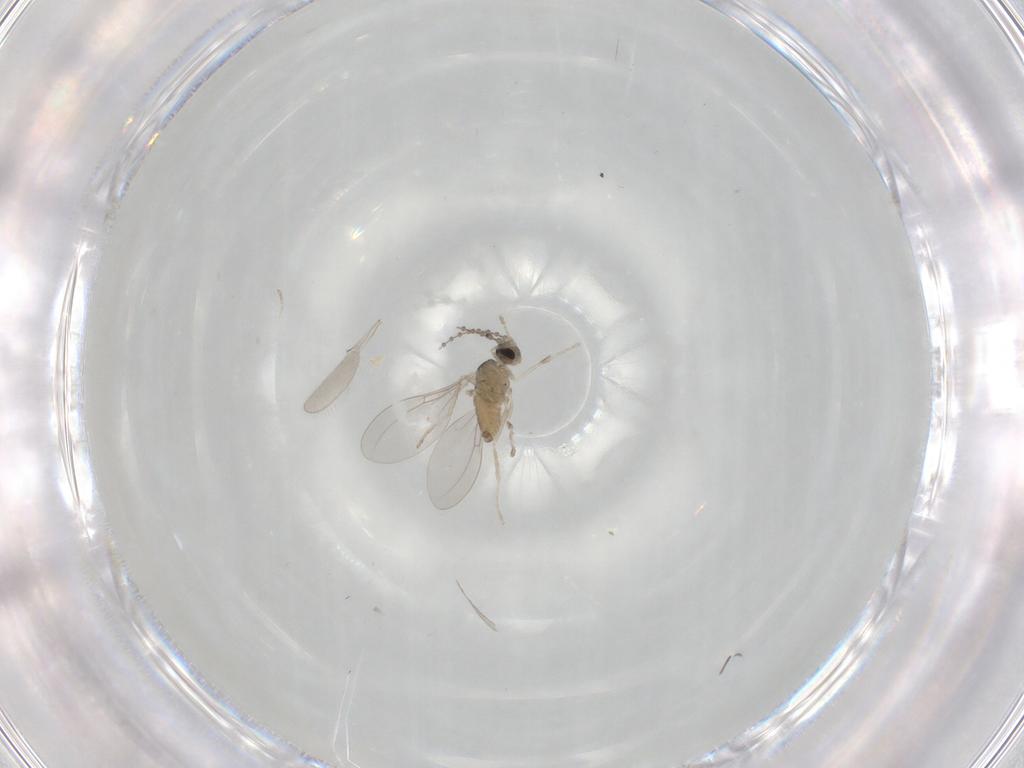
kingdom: Animalia
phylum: Arthropoda
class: Insecta
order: Diptera
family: Cecidomyiidae
